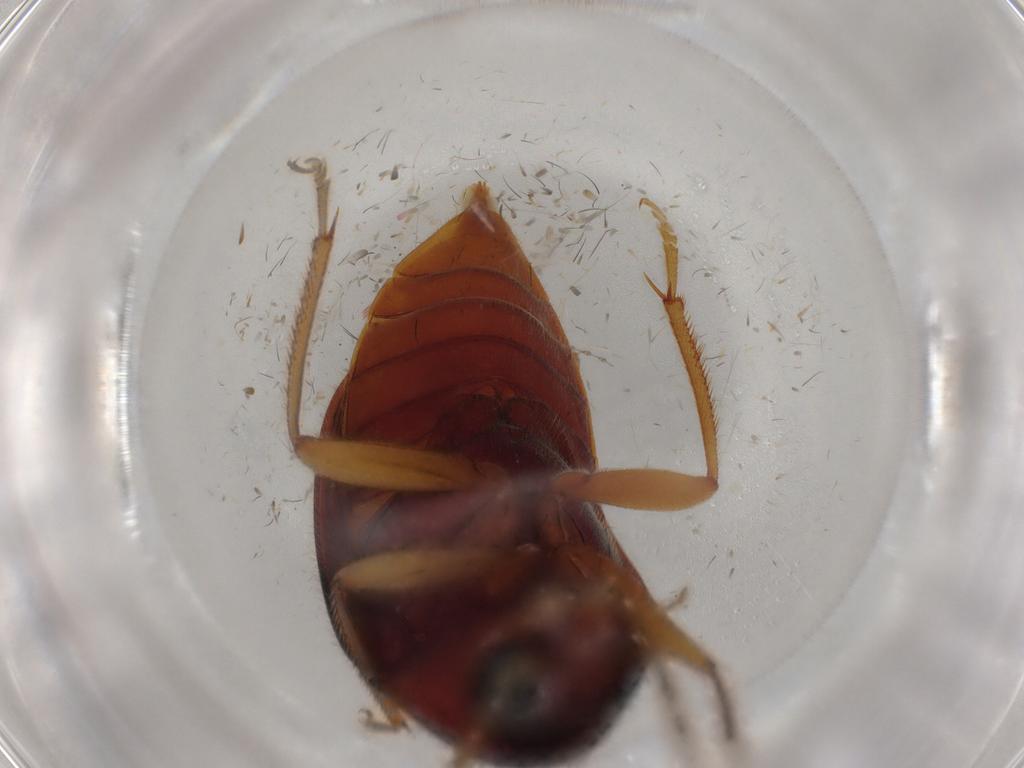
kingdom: Animalia
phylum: Arthropoda
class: Insecta
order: Coleoptera
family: Ptilodactylidae
